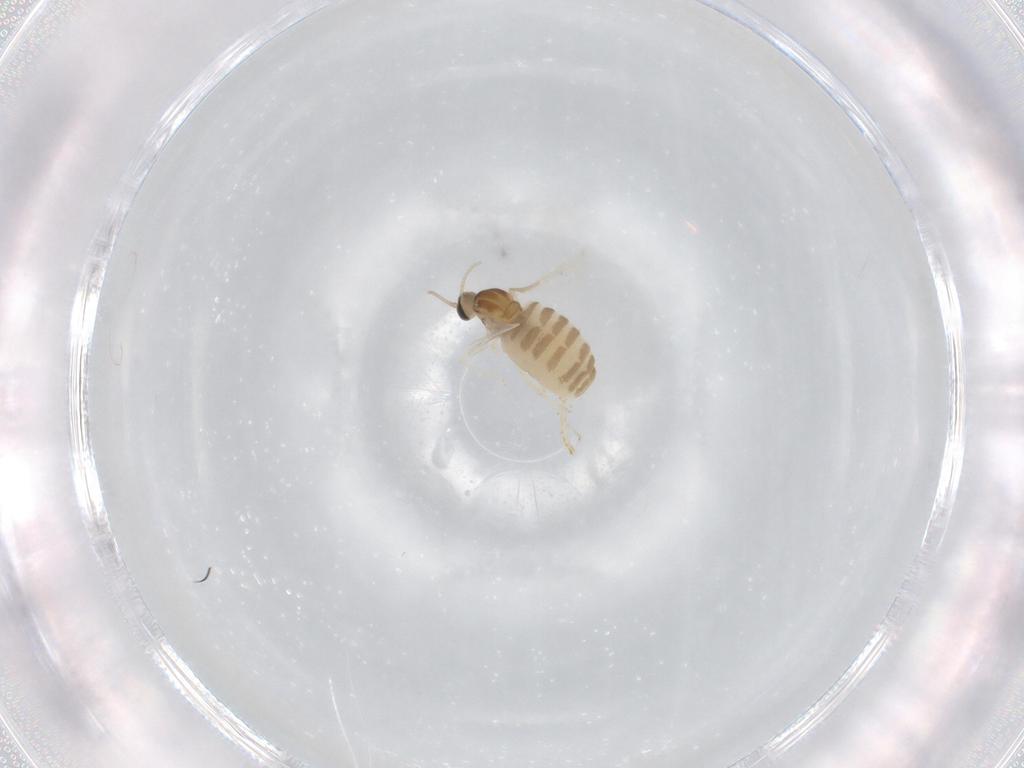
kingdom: Animalia
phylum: Arthropoda
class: Insecta
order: Diptera
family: Cecidomyiidae
